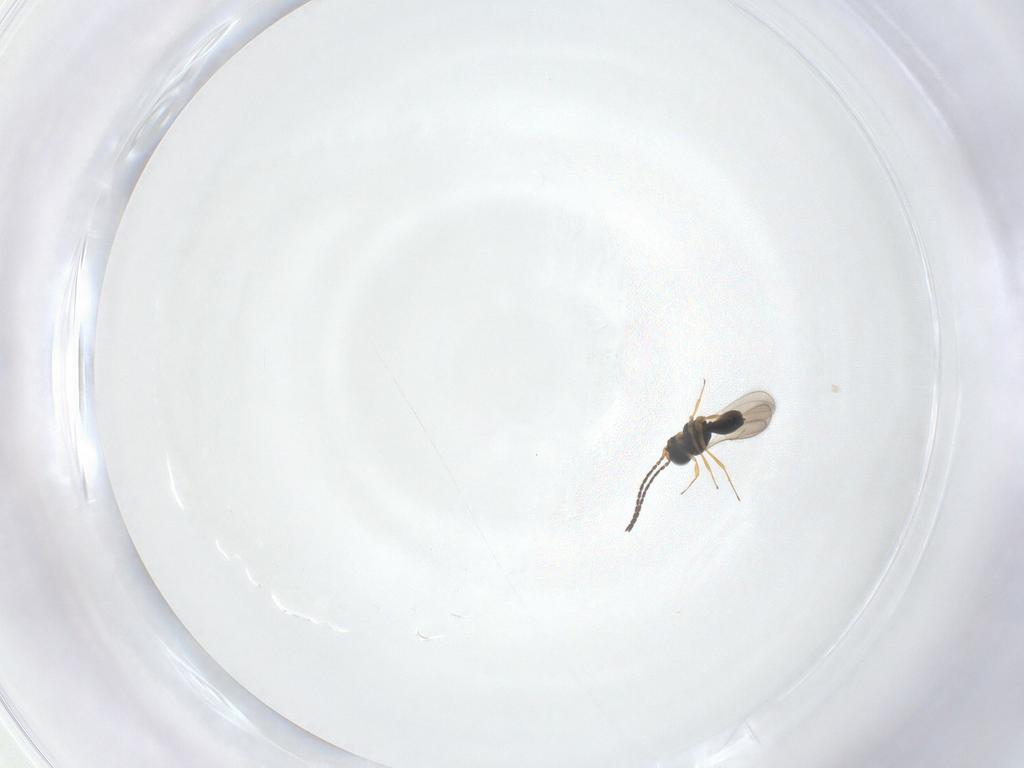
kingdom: Animalia
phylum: Arthropoda
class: Insecta
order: Hymenoptera
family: Scelionidae
